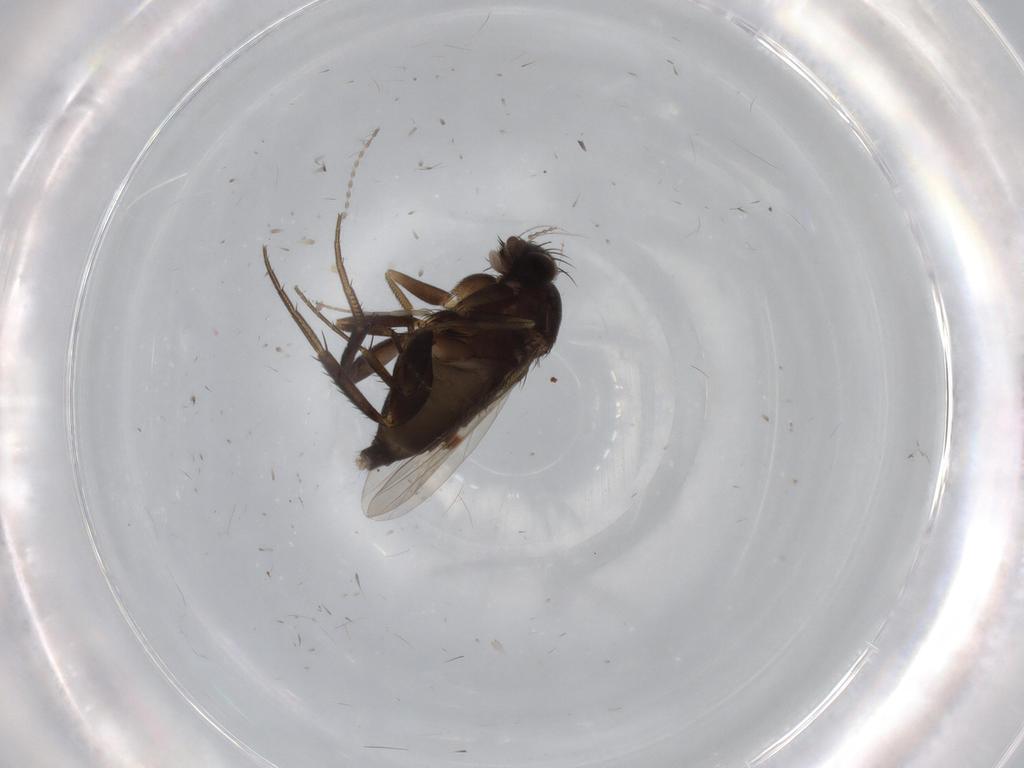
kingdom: Animalia
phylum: Arthropoda
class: Insecta
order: Diptera
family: Phoridae
